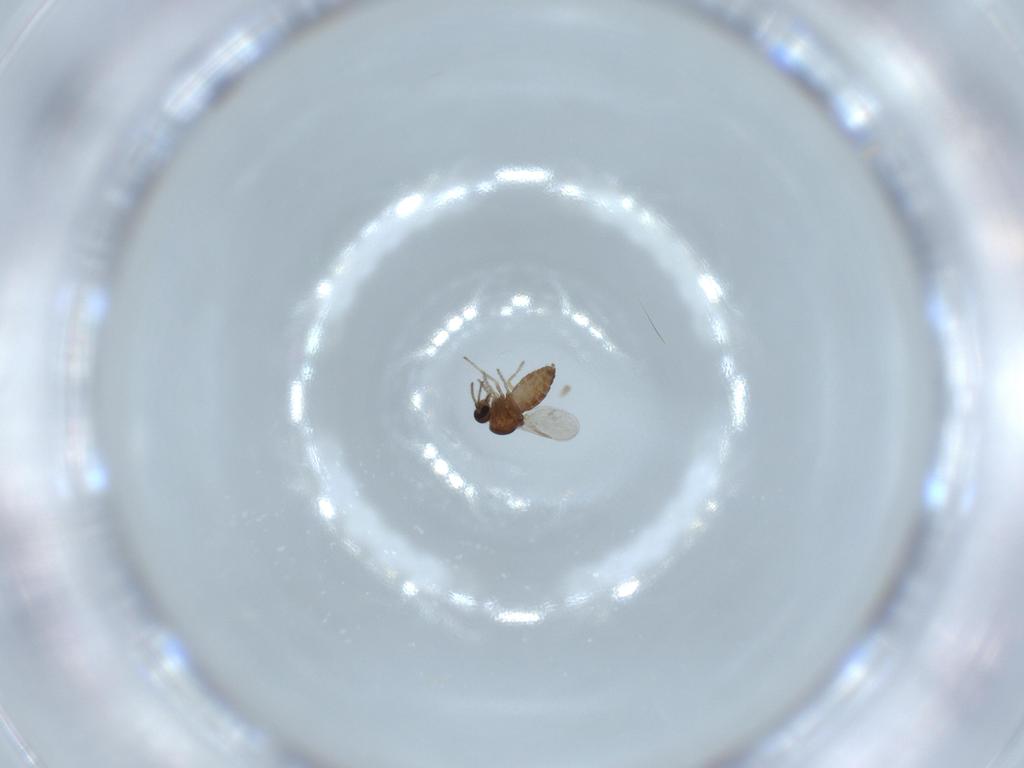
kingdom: Animalia
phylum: Arthropoda
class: Insecta
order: Diptera
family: Ceratopogonidae
